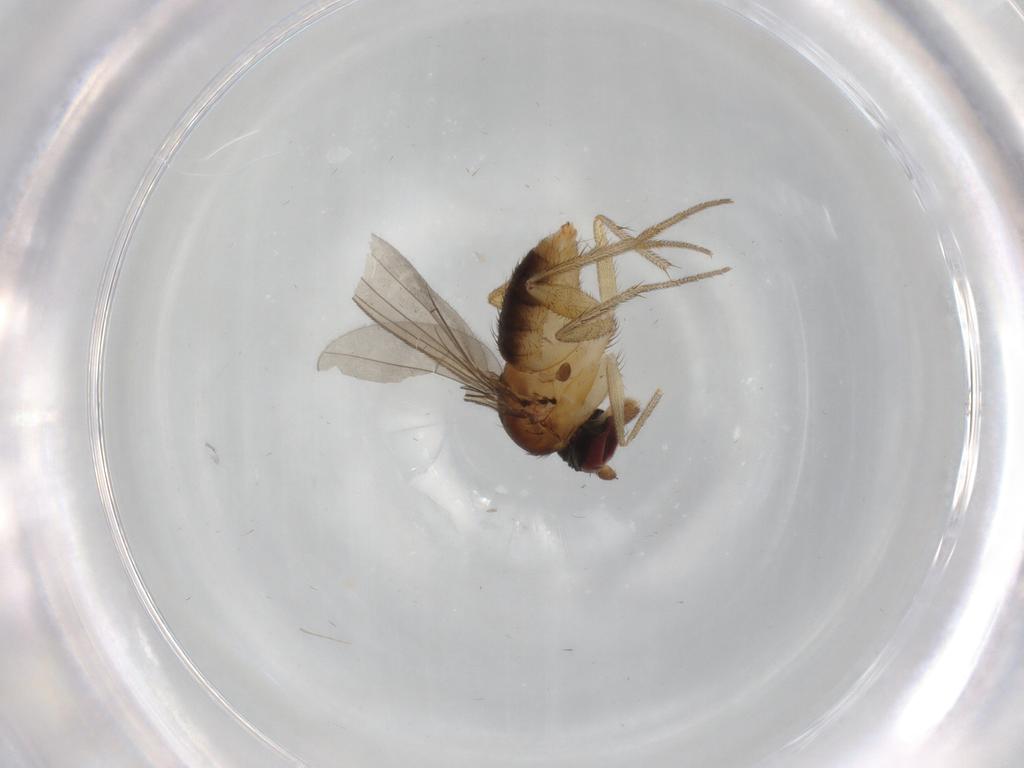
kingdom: Animalia
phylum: Arthropoda
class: Insecta
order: Diptera
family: Dolichopodidae
